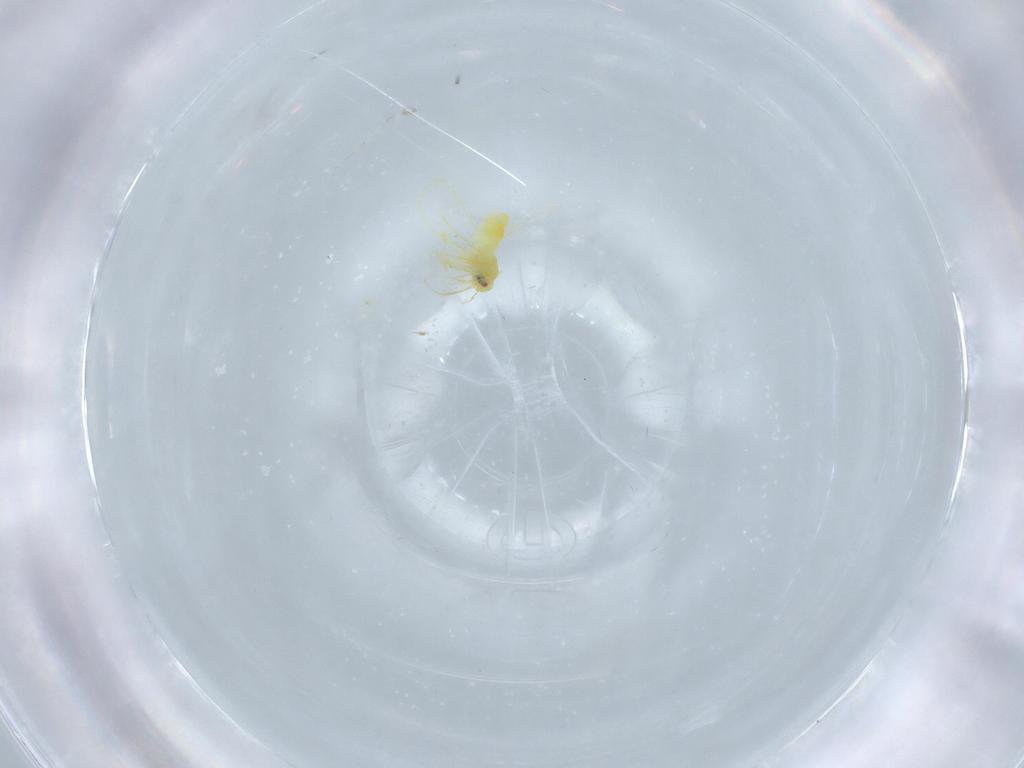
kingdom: Animalia
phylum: Arthropoda
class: Insecta
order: Hemiptera
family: Aleyrodidae
